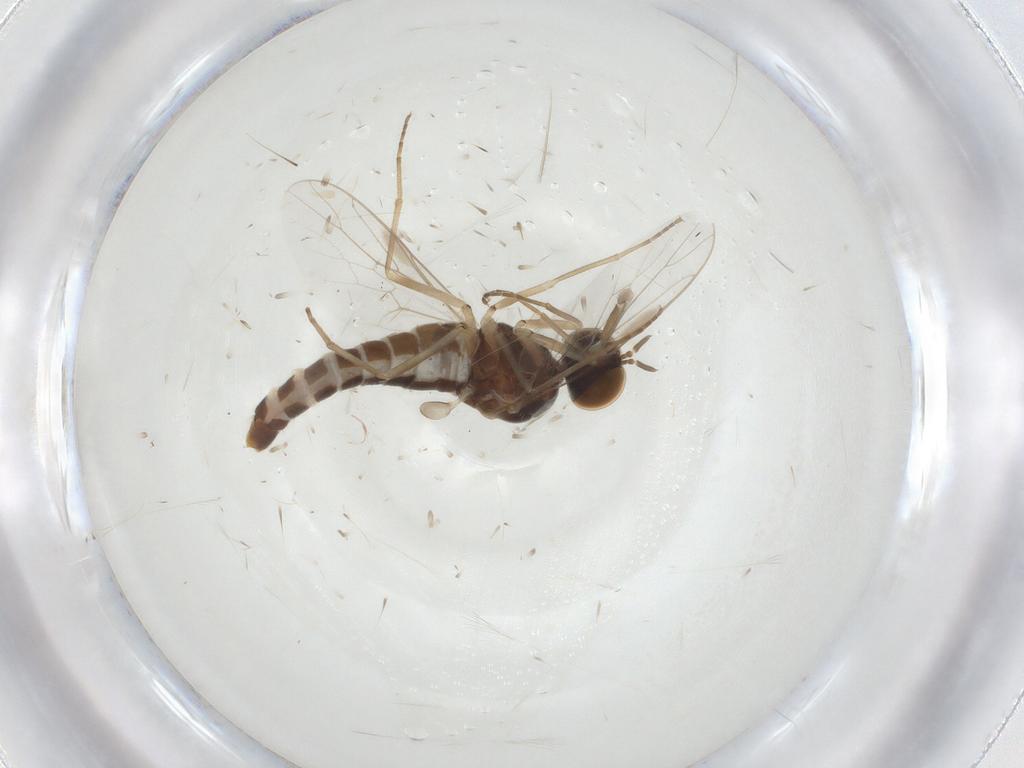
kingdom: Animalia
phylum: Arthropoda
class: Insecta
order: Diptera
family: Scenopinidae
